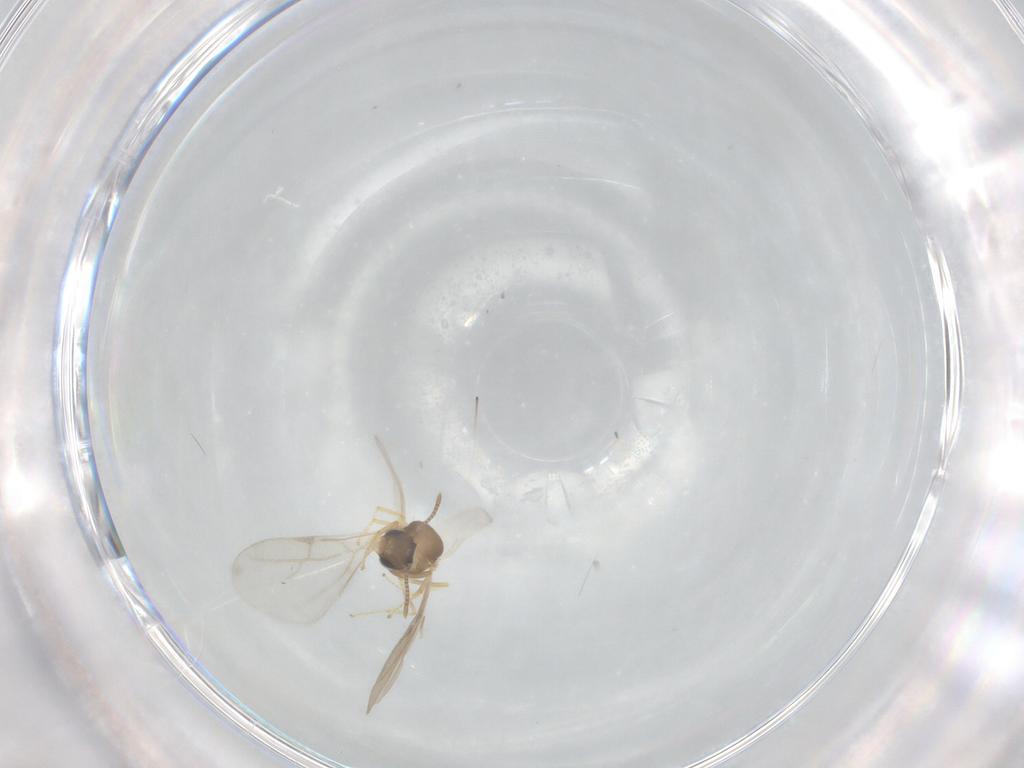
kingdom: Animalia
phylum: Arthropoda
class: Insecta
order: Hymenoptera
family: Formicidae
